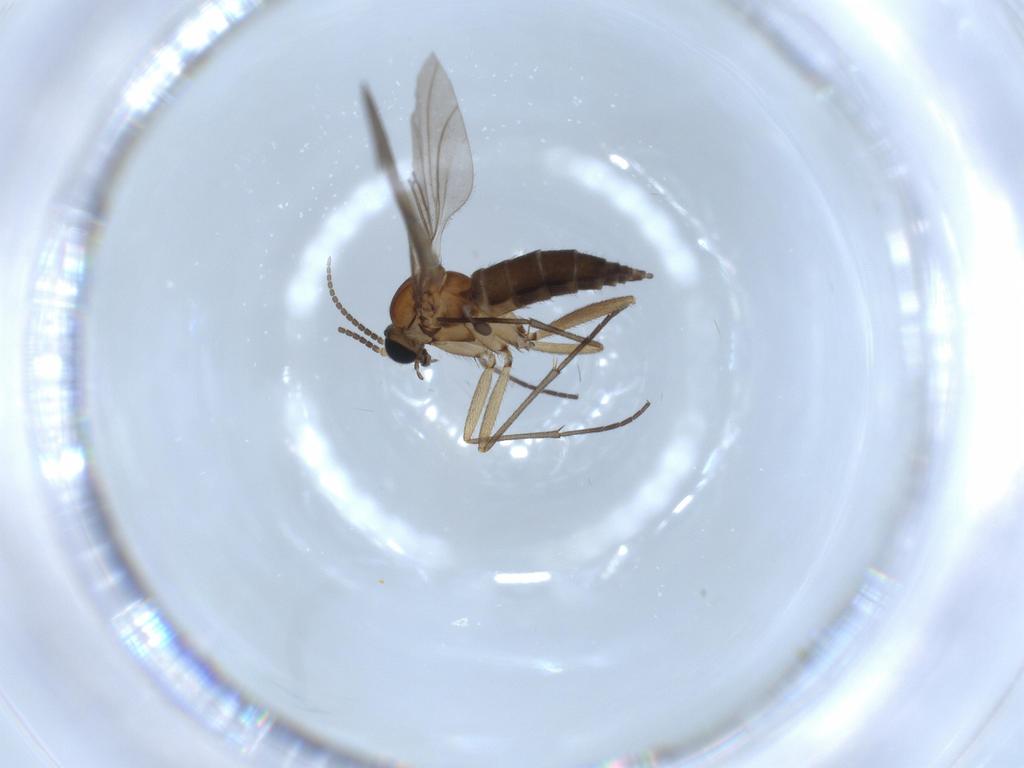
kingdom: Animalia
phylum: Arthropoda
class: Insecta
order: Diptera
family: Sciaridae
